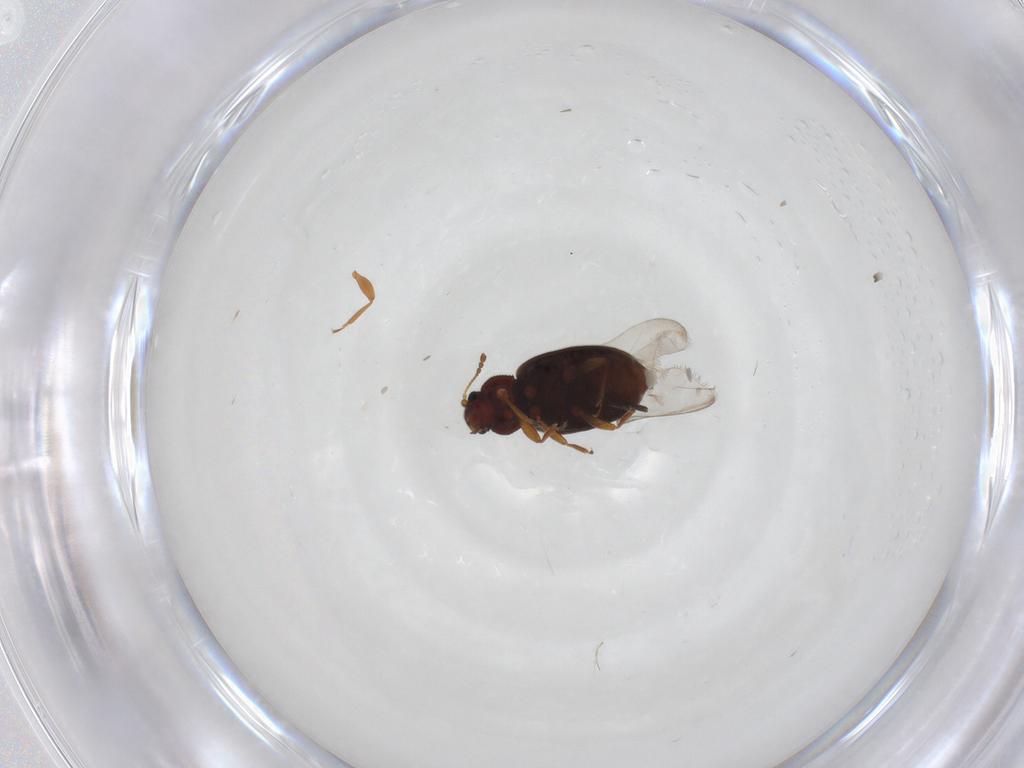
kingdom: Animalia
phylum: Arthropoda
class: Insecta
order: Coleoptera
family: Latridiidae
